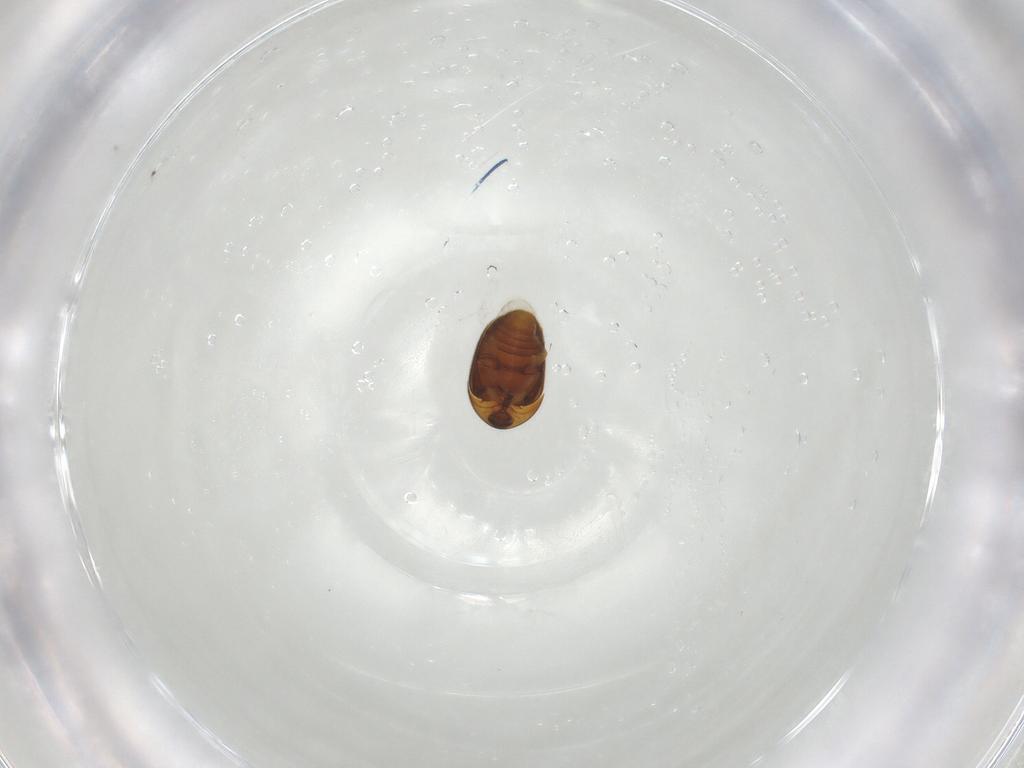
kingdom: Animalia
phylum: Arthropoda
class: Insecta
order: Coleoptera
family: Corylophidae
